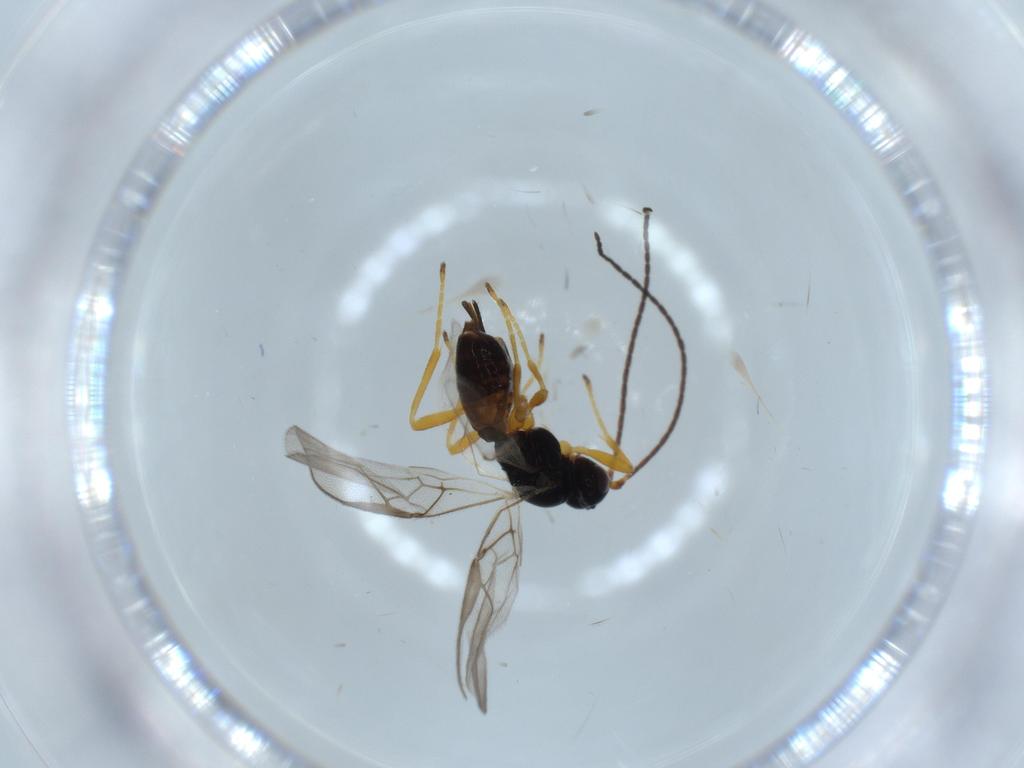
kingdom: Animalia
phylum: Arthropoda
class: Insecta
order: Hymenoptera
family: Braconidae
